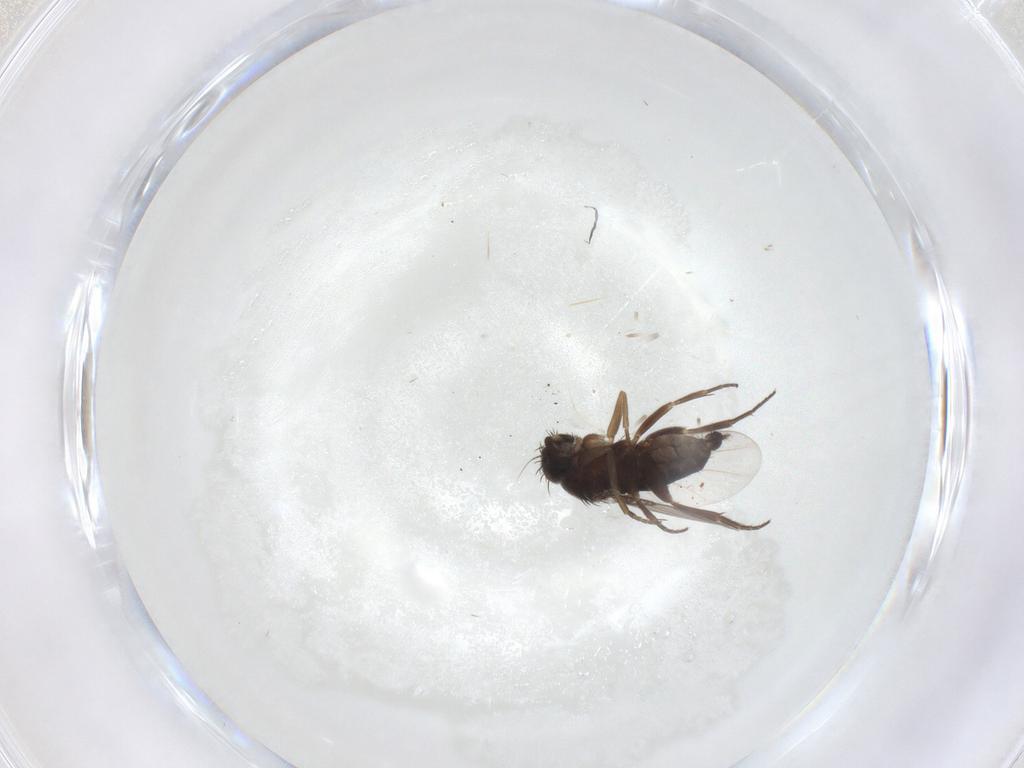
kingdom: Animalia
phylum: Arthropoda
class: Insecta
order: Diptera
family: Phoridae
